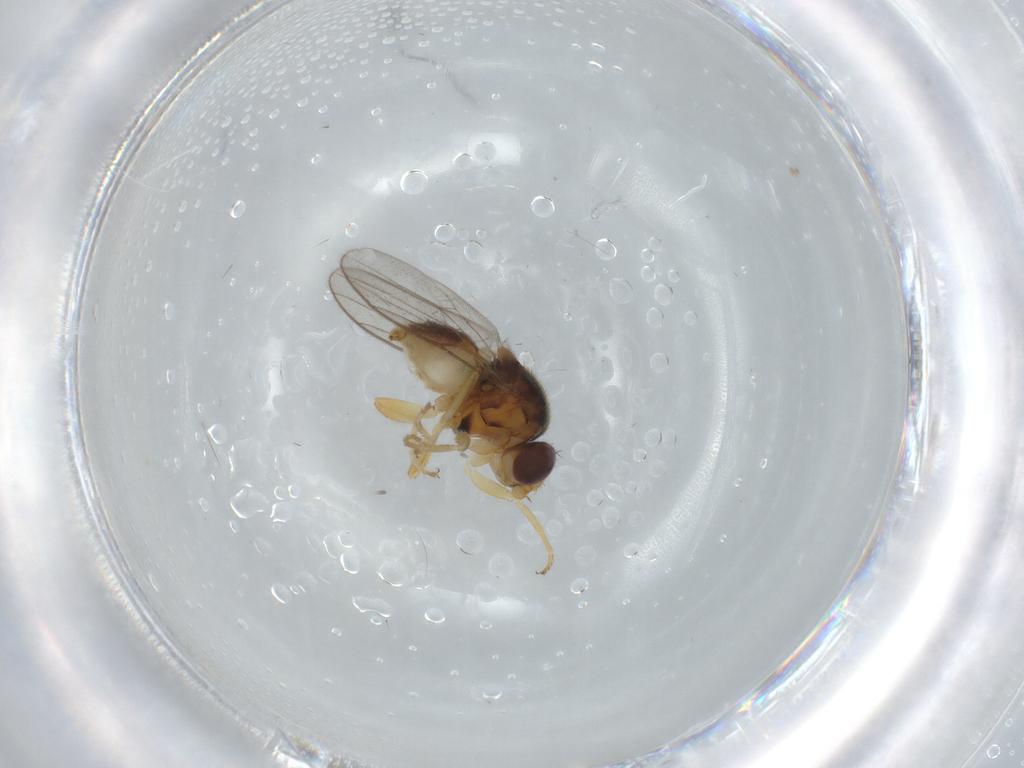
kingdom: Animalia
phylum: Arthropoda
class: Insecta
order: Diptera
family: Chloropidae
